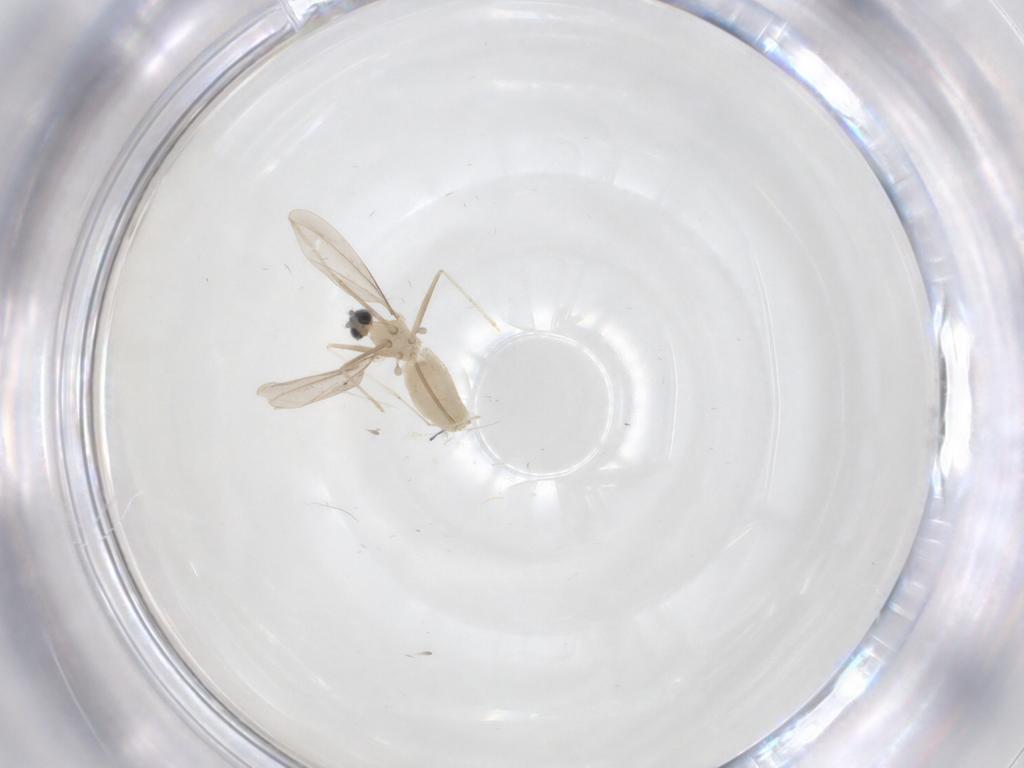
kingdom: Animalia
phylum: Arthropoda
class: Insecta
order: Diptera
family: Cecidomyiidae
